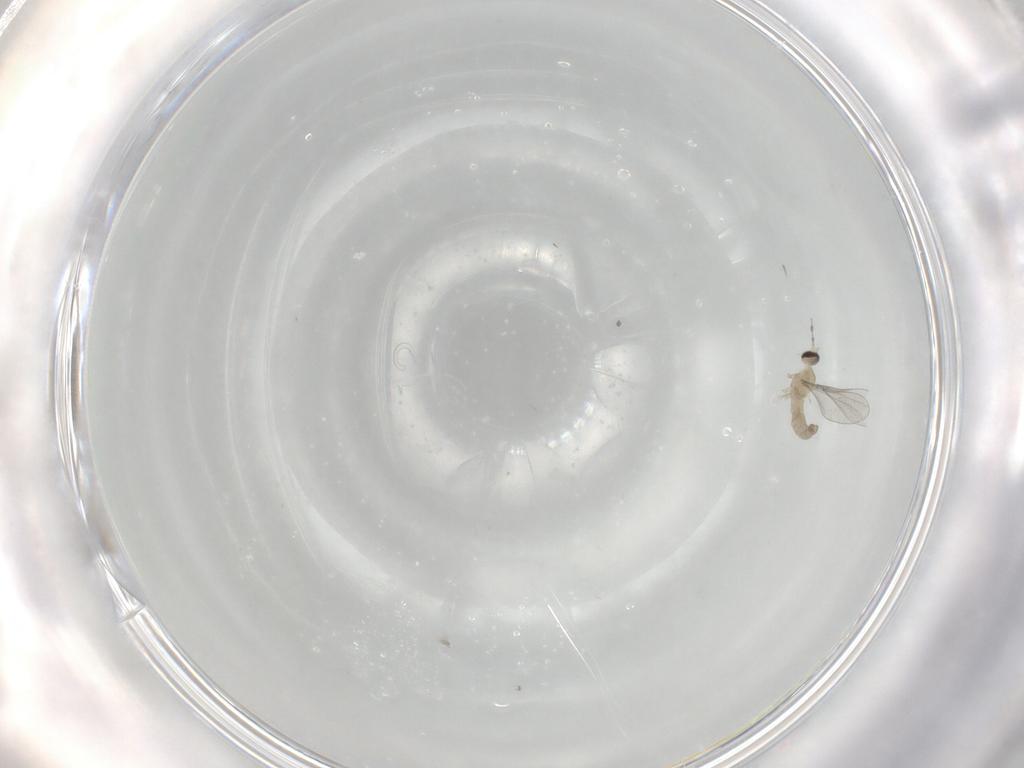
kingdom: Animalia
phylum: Arthropoda
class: Insecta
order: Diptera
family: Cecidomyiidae
